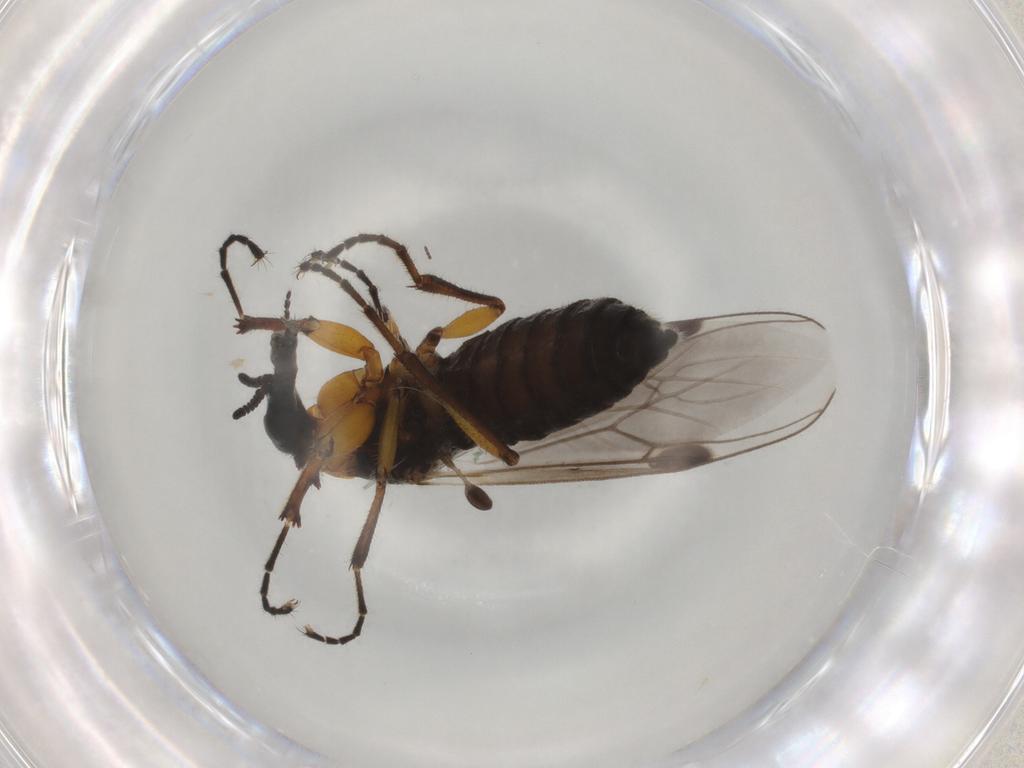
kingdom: Animalia
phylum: Arthropoda
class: Insecta
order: Diptera
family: Bibionidae
